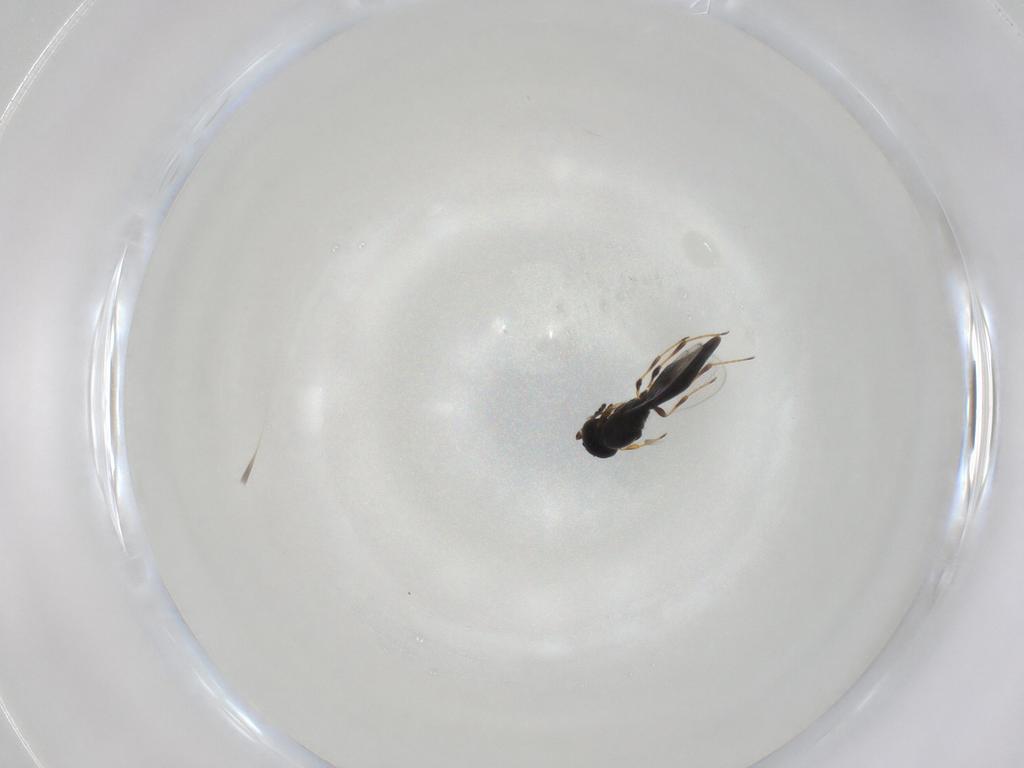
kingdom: Animalia
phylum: Arthropoda
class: Insecta
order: Hymenoptera
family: Platygastridae
